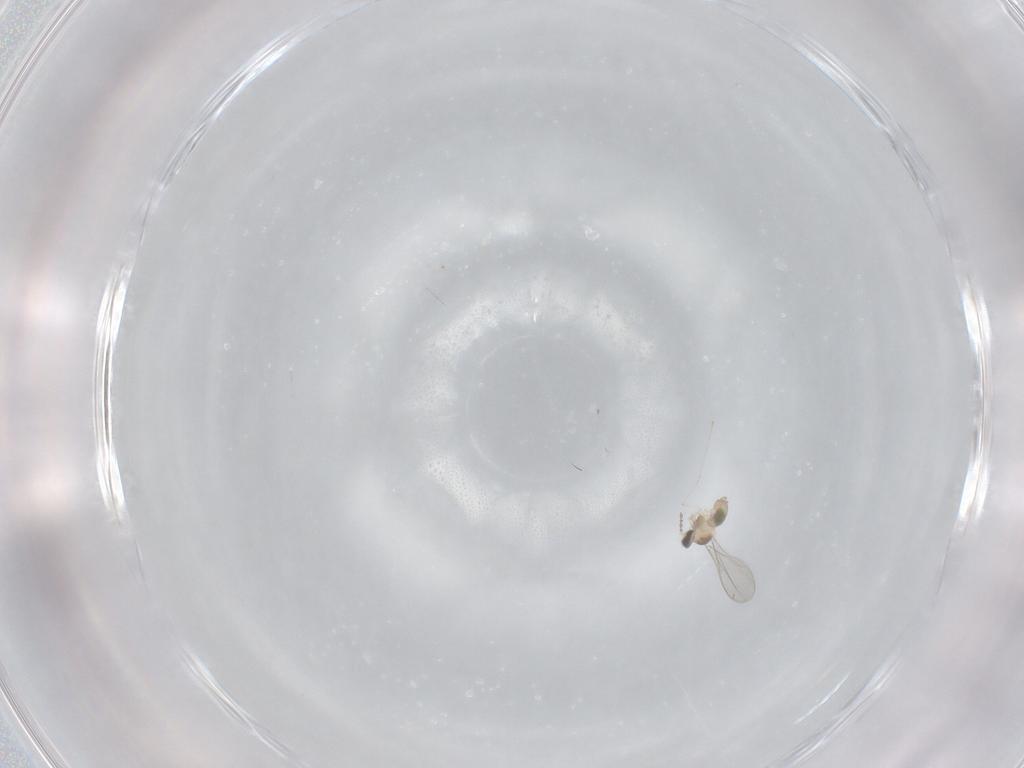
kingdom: Animalia
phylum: Arthropoda
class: Insecta
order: Diptera
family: Cecidomyiidae
